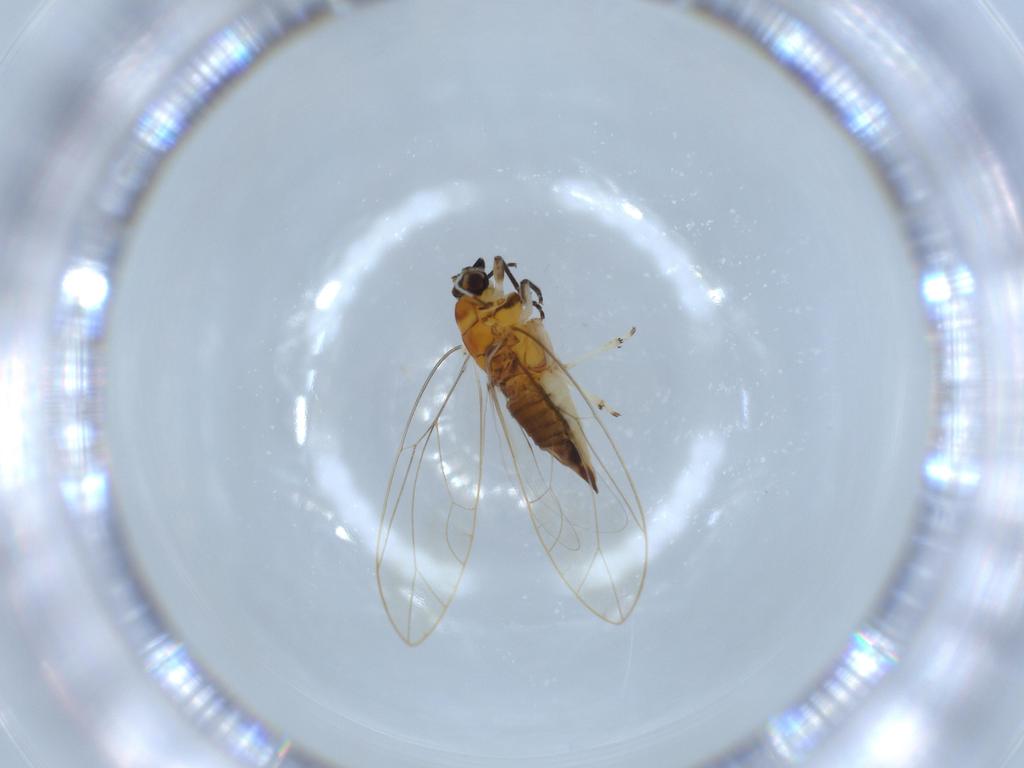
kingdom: Animalia
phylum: Arthropoda
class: Insecta
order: Hemiptera
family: Triozidae
